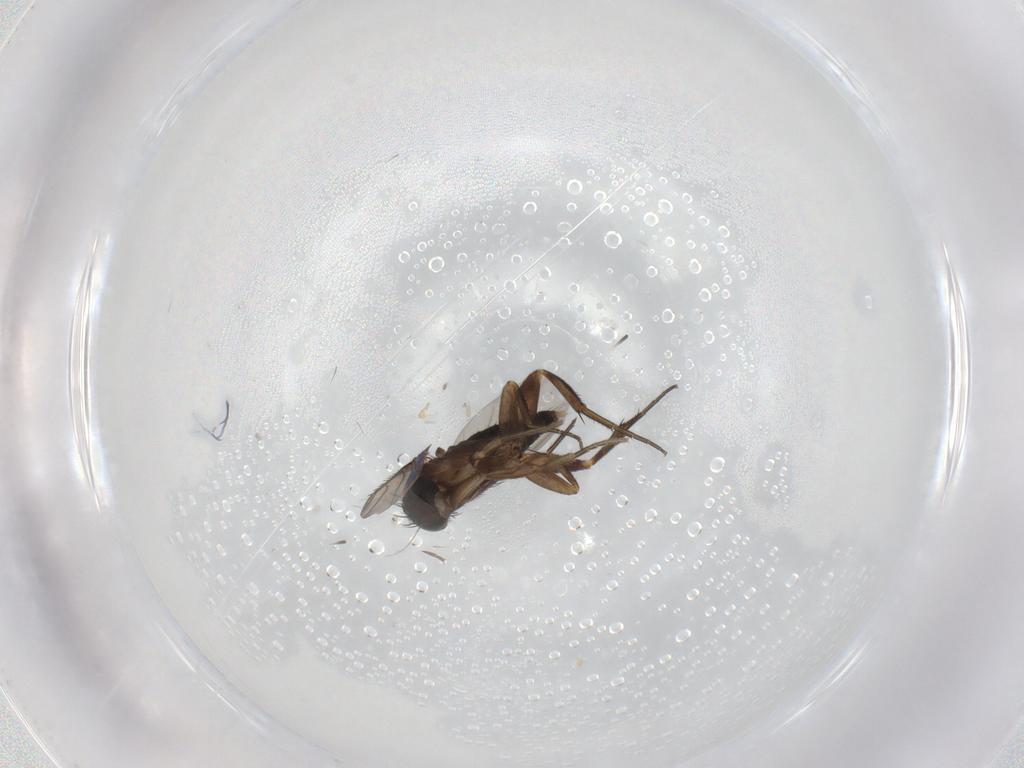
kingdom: Animalia
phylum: Arthropoda
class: Insecta
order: Diptera
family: Phoridae
